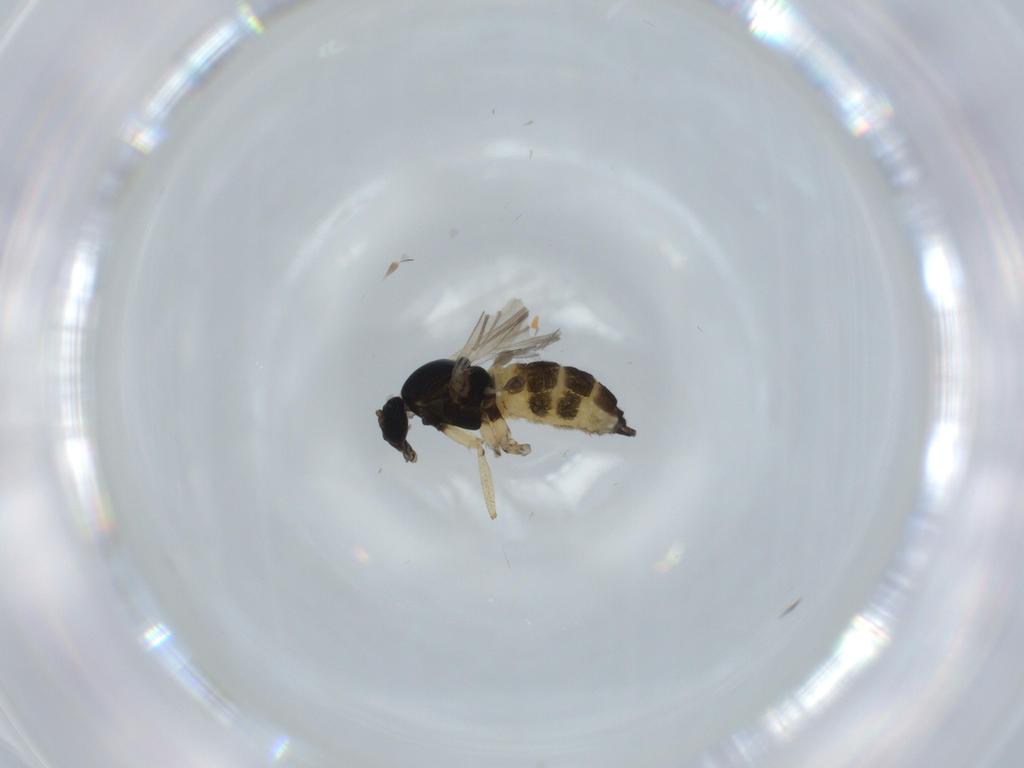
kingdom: Animalia
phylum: Arthropoda
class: Insecta
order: Diptera
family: Sciaridae
